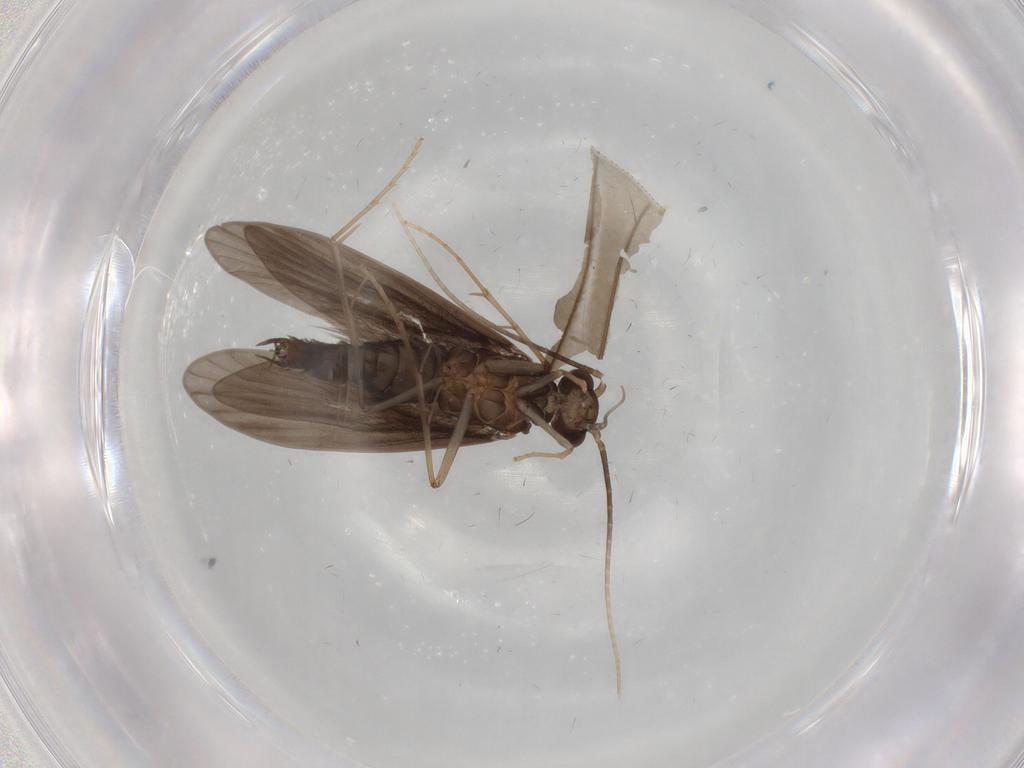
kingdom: Animalia
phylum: Arthropoda
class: Insecta
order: Trichoptera
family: Xiphocentronidae
